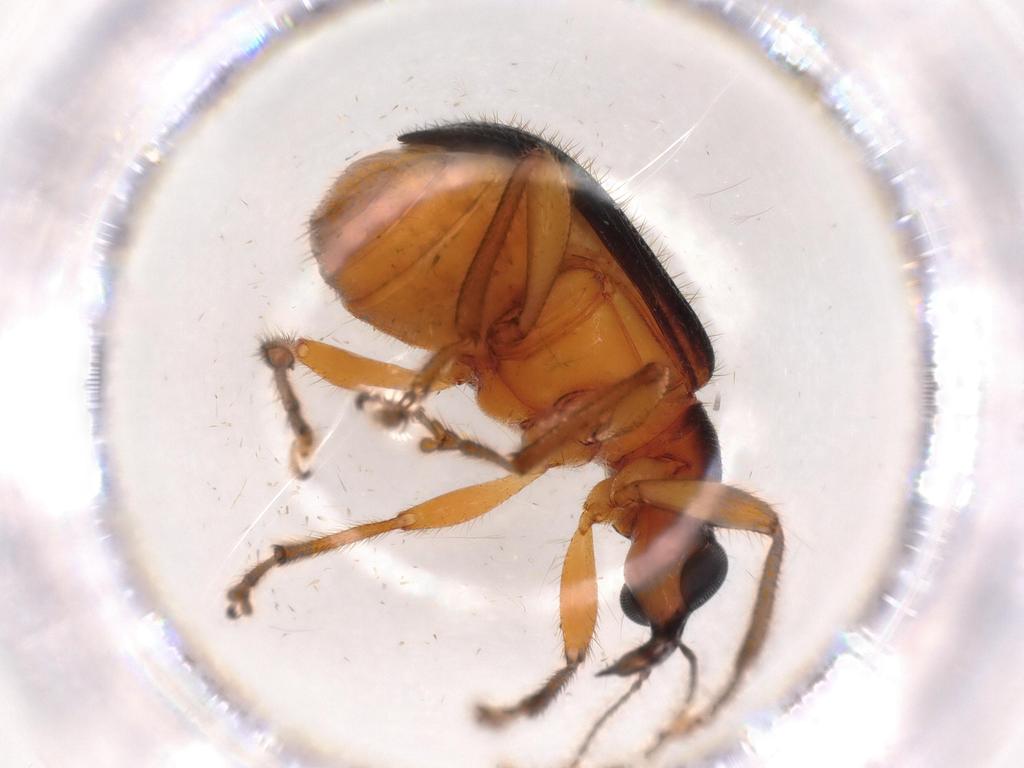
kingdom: Animalia
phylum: Arthropoda
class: Insecta
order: Coleoptera
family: Attelabidae
